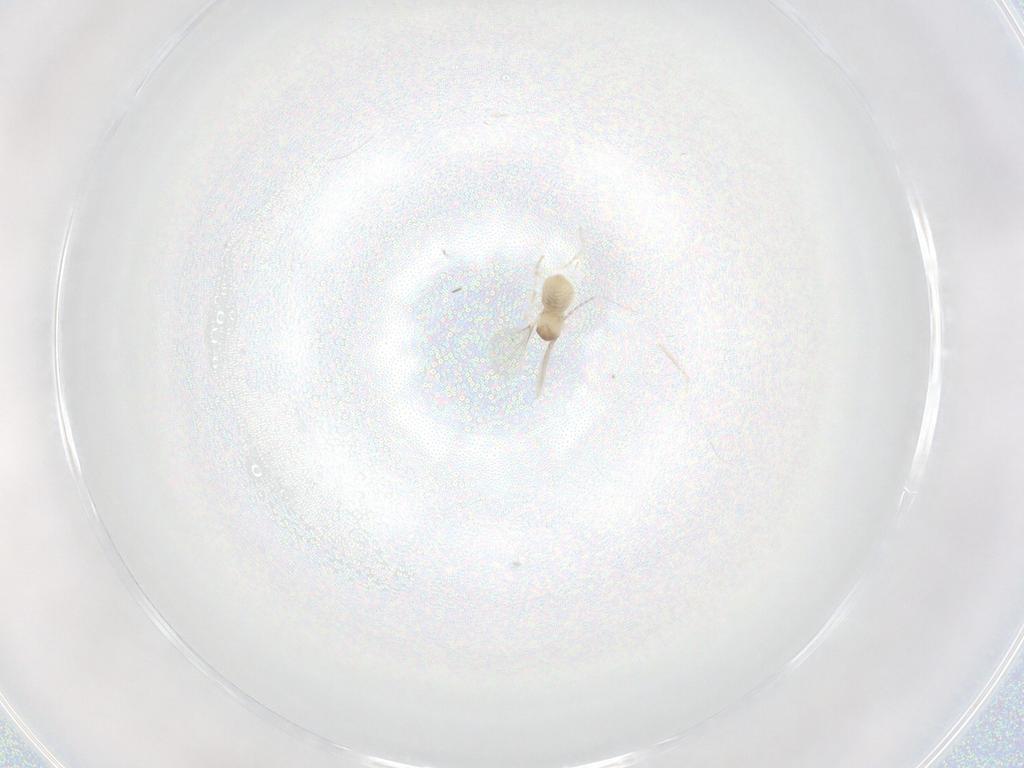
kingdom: Animalia
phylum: Arthropoda
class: Insecta
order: Diptera
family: Cecidomyiidae
